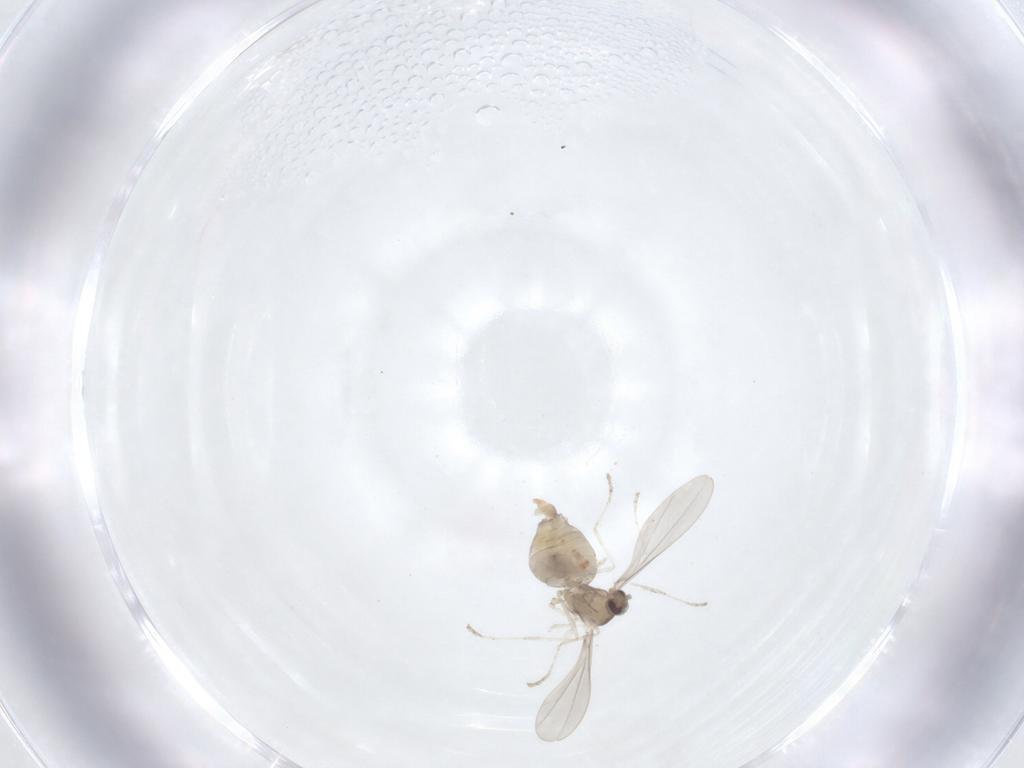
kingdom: Animalia
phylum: Arthropoda
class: Insecta
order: Diptera
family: Cecidomyiidae
